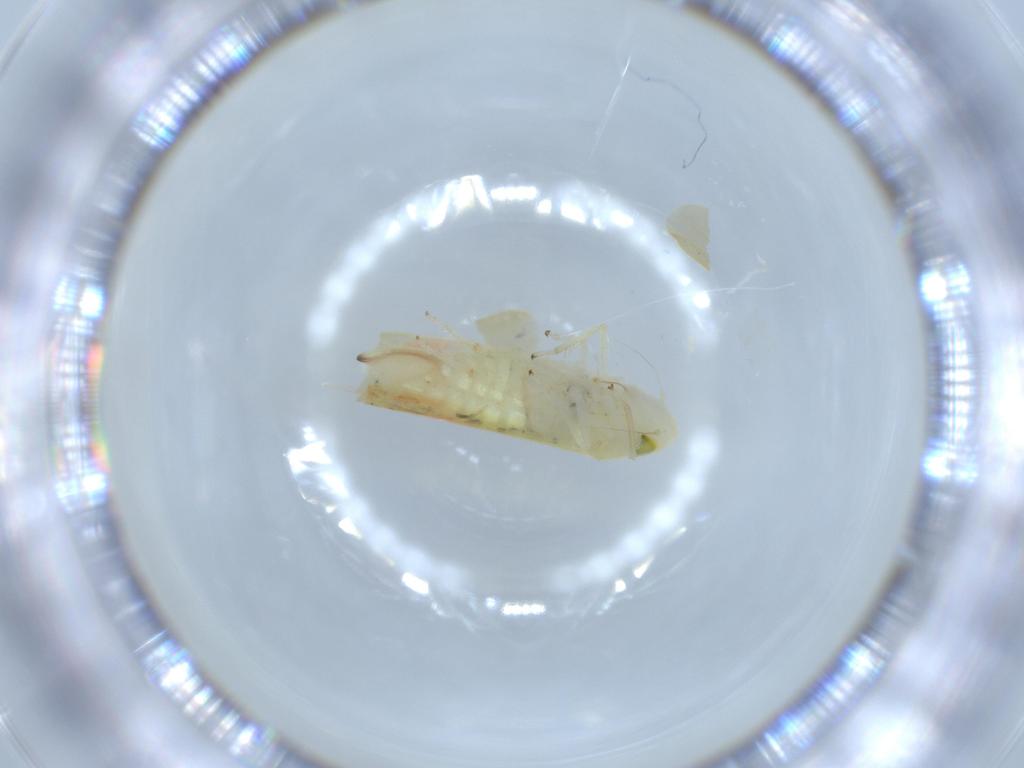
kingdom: Animalia
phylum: Arthropoda
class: Insecta
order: Hemiptera
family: Cicadellidae
